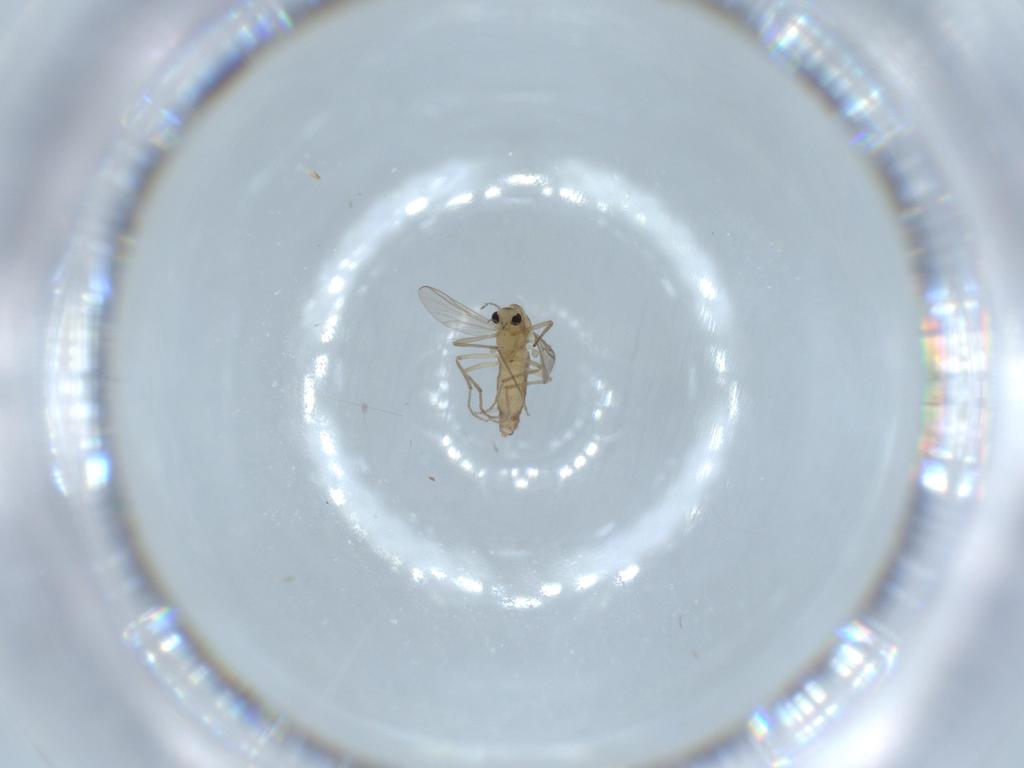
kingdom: Animalia
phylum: Arthropoda
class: Insecta
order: Diptera
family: Chironomidae
